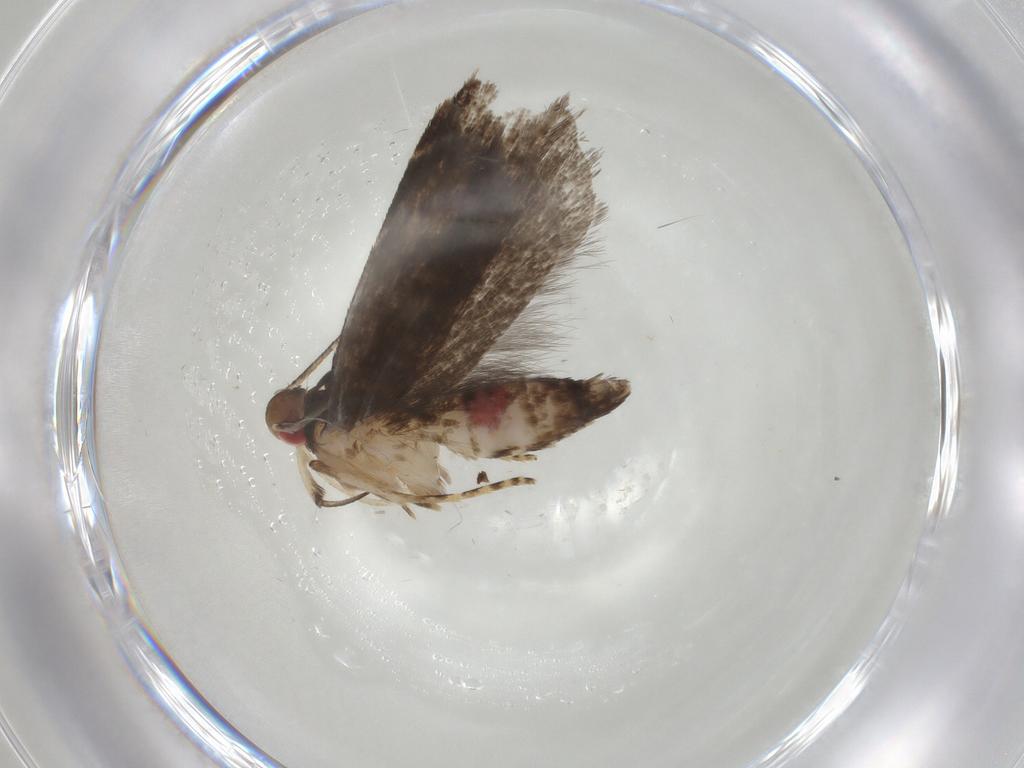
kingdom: Animalia
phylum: Arthropoda
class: Insecta
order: Lepidoptera
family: Gelechiidae
